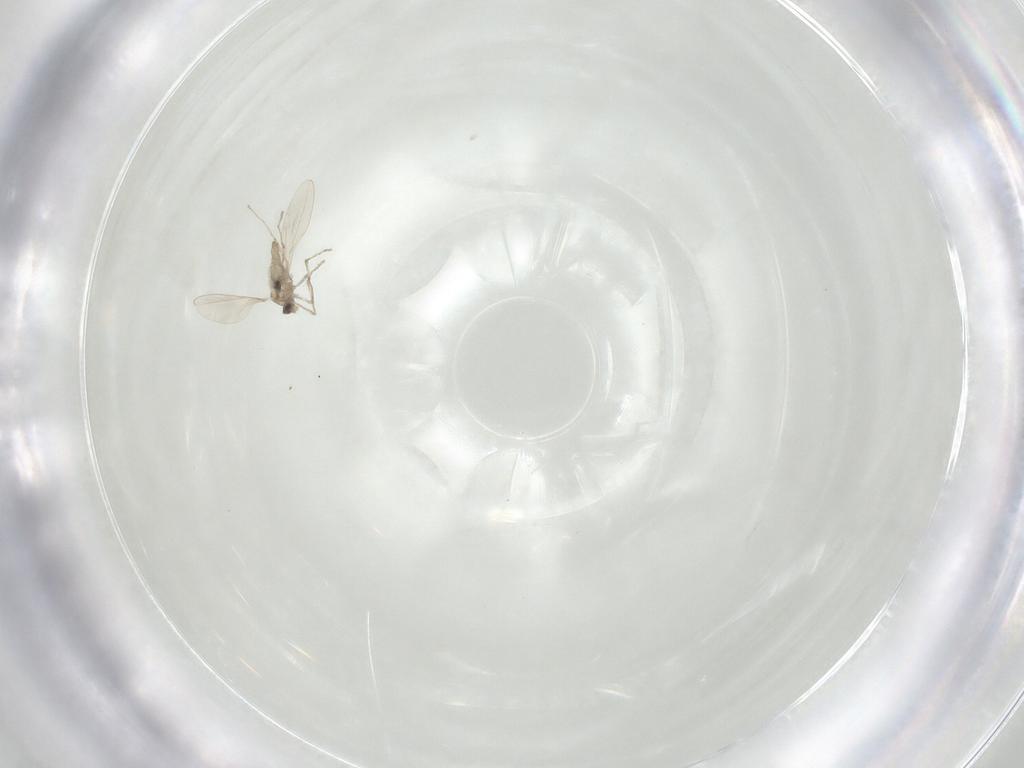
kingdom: Animalia
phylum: Arthropoda
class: Insecta
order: Diptera
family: Cecidomyiidae
